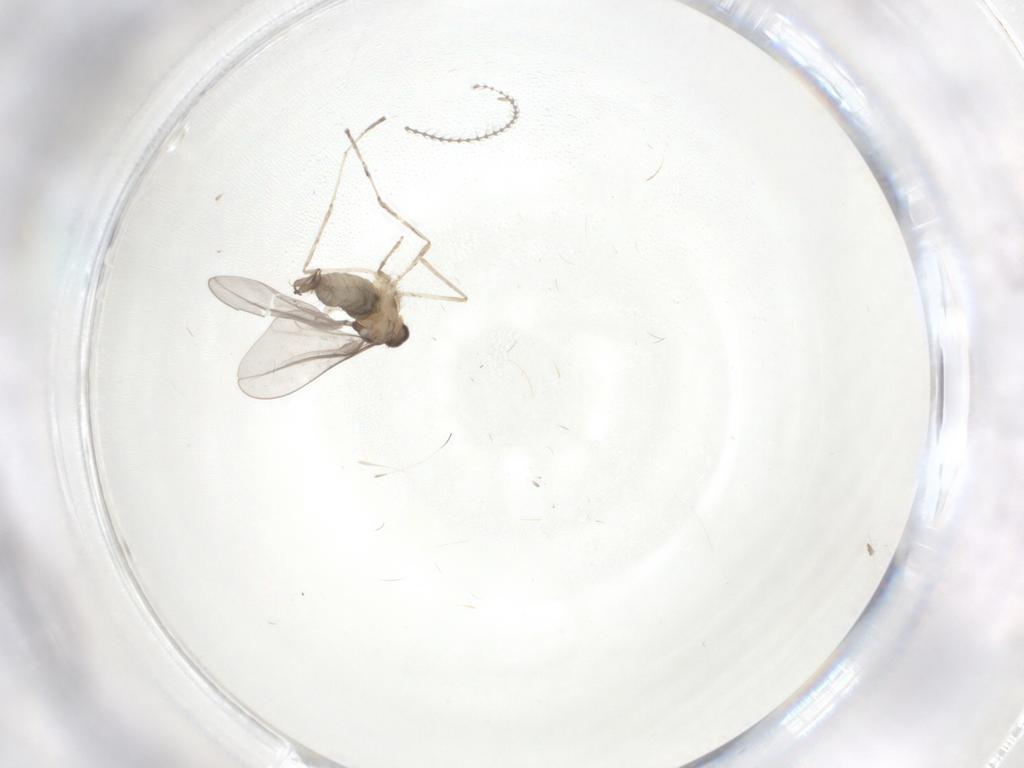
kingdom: Animalia
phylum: Arthropoda
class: Insecta
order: Diptera
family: Cecidomyiidae
